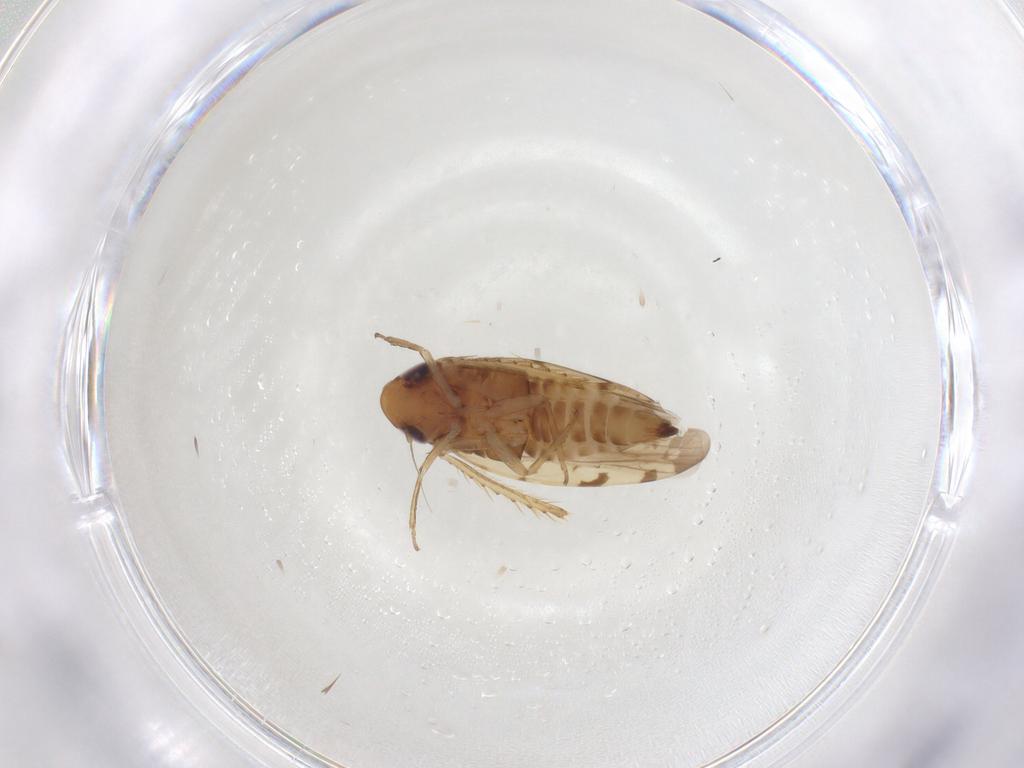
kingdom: Animalia
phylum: Arthropoda
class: Insecta
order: Hemiptera
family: Cicadellidae
